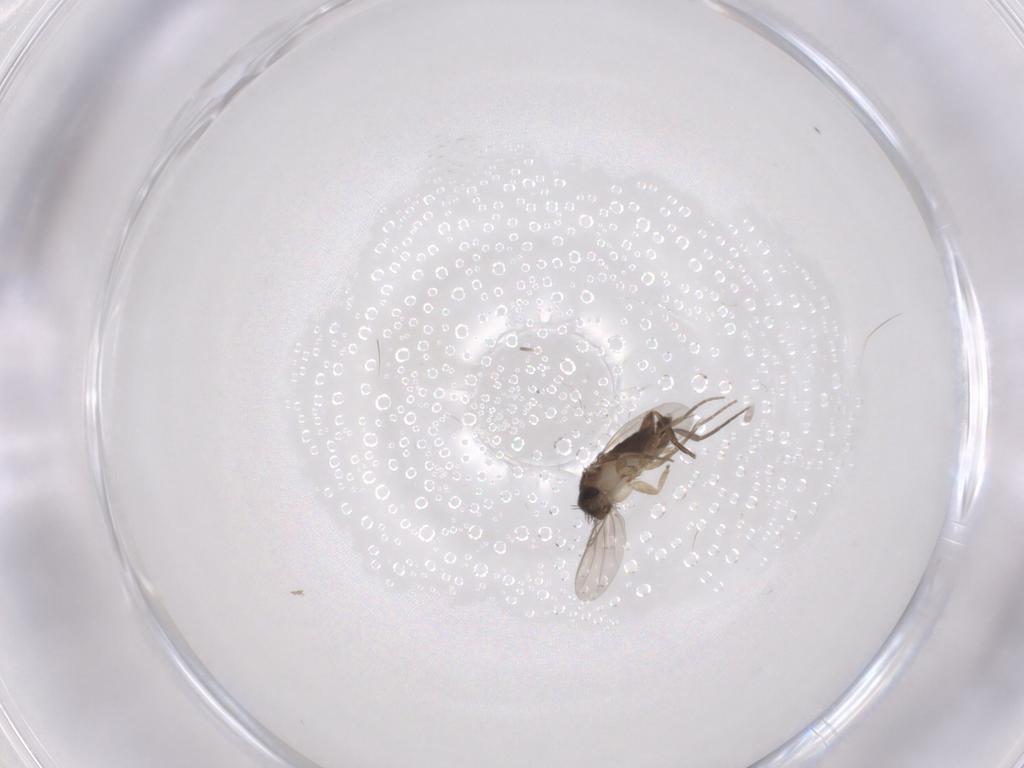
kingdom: Animalia
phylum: Arthropoda
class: Insecta
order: Diptera
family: Phoridae
